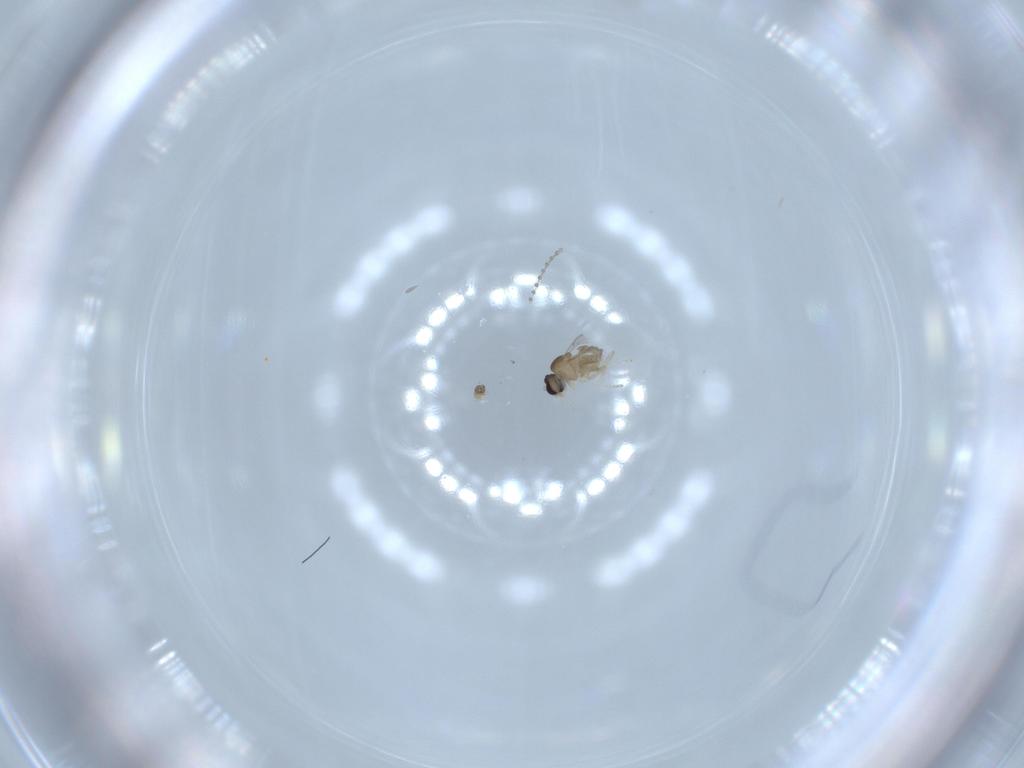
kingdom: Animalia
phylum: Arthropoda
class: Insecta
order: Diptera
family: Cecidomyiidae
